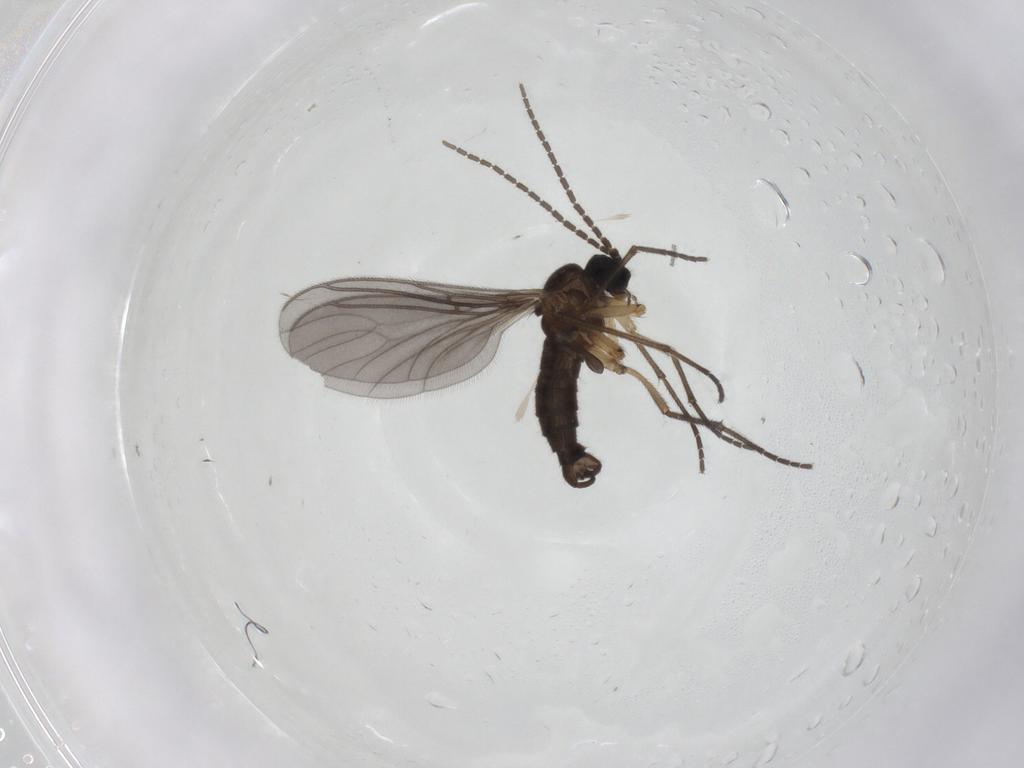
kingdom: Animalia
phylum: Arthropoda
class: Insecta
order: Diptera
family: Sciaridae
